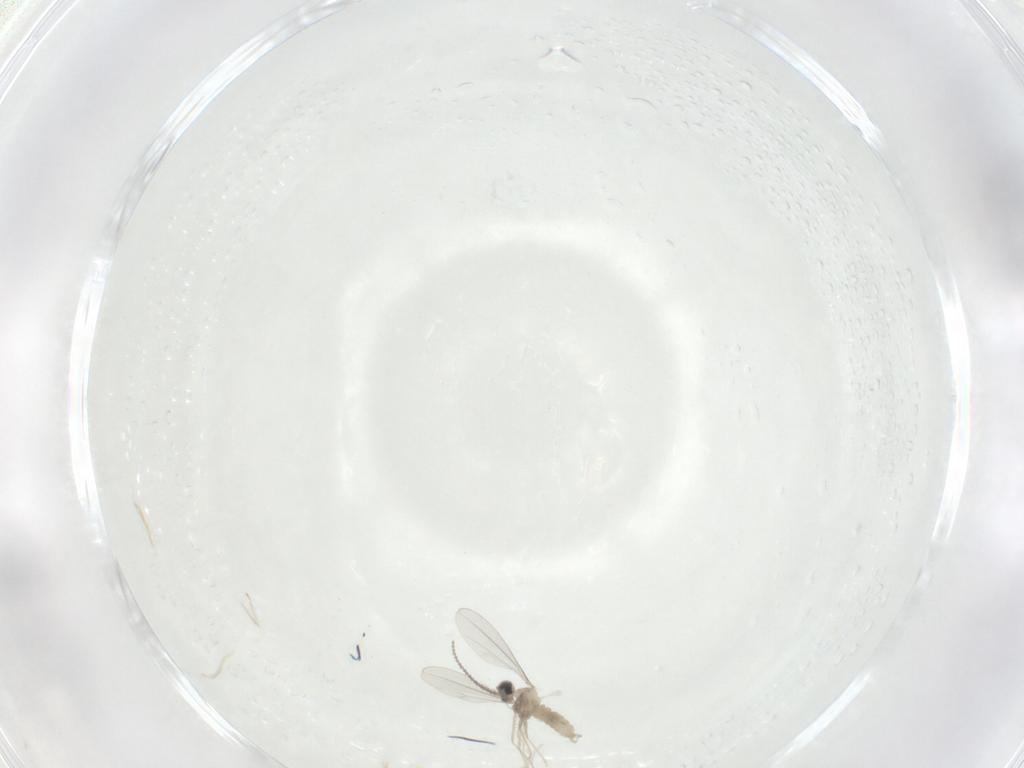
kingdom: Animalia
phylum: Arthropoda
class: Insecta
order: Diptera
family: Cecidomyiidae
